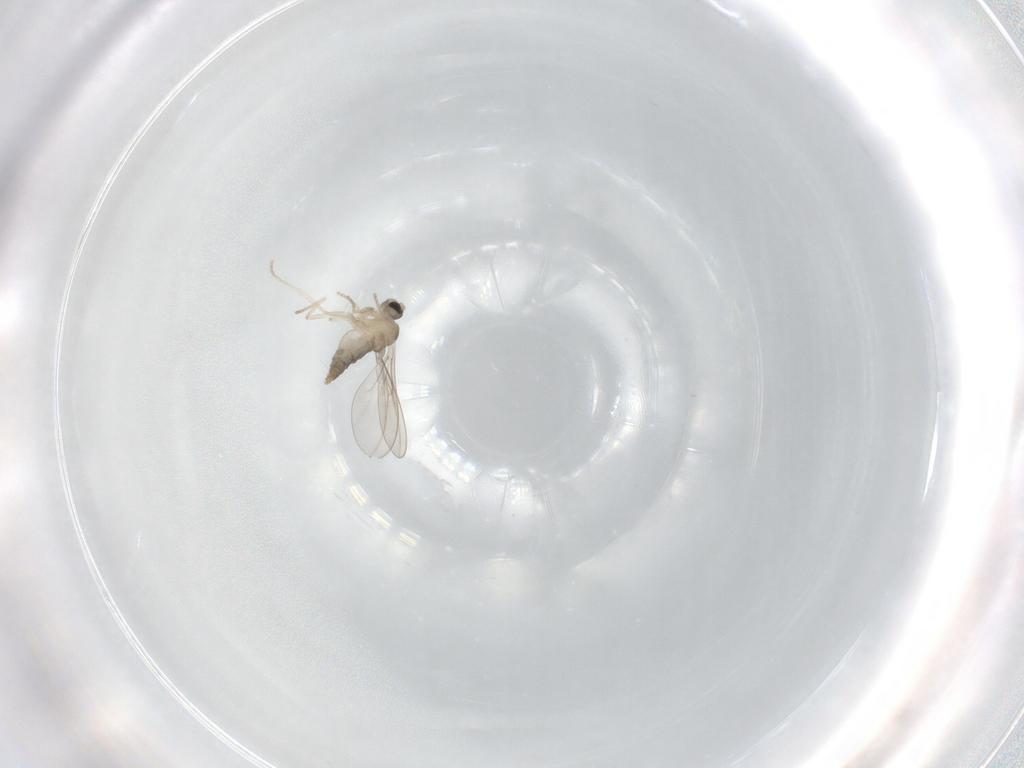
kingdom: Animalia
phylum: Arthropoda
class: Insecta
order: Diptera
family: Cecidomyiidae
